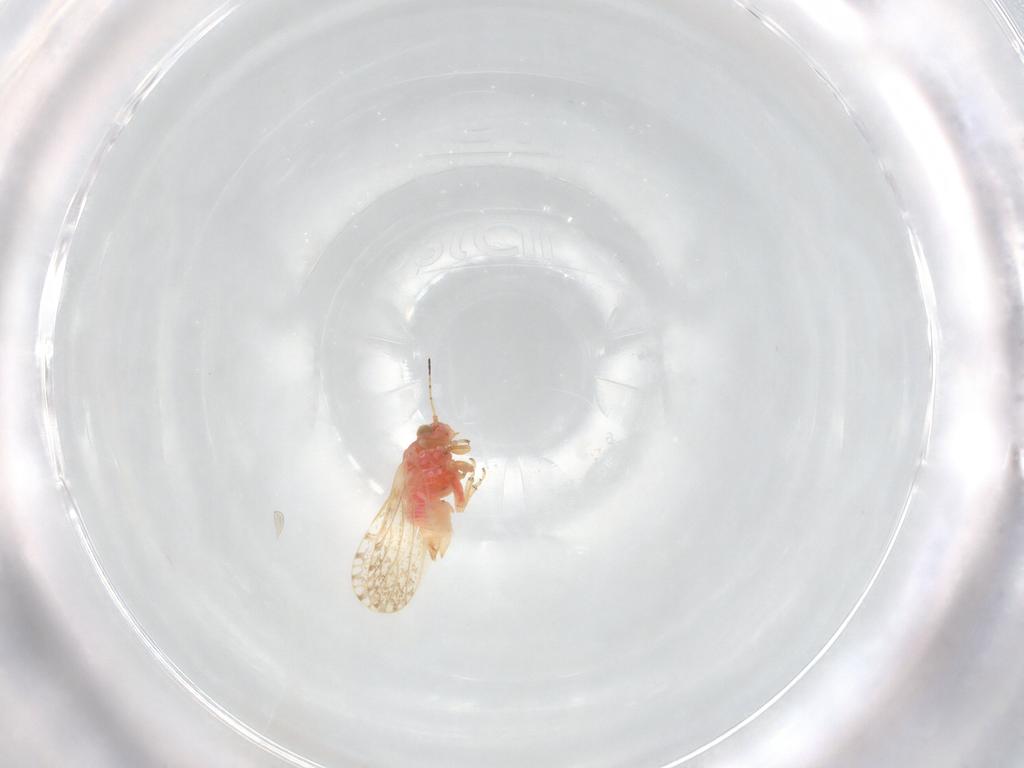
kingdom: Animalia
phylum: Arthropoda
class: Insecta
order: Hemiptera
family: Psyllidae
